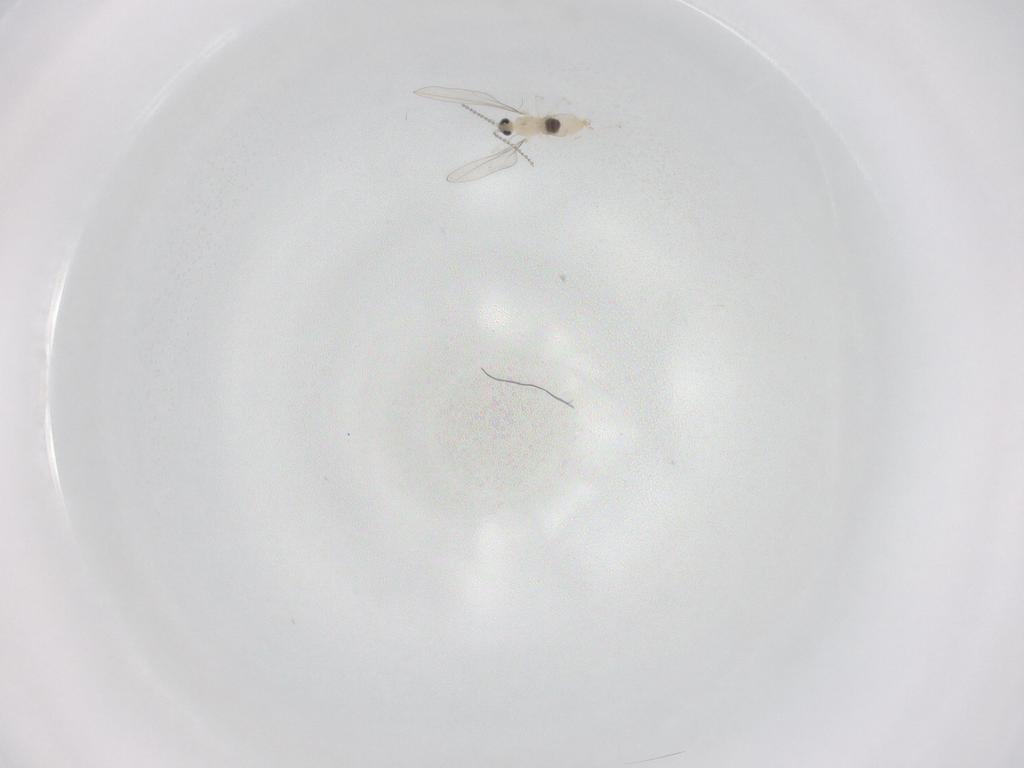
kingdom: Animalia
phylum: Arthropoda
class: Insecta
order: Diptera
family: Cecidomyiidae
